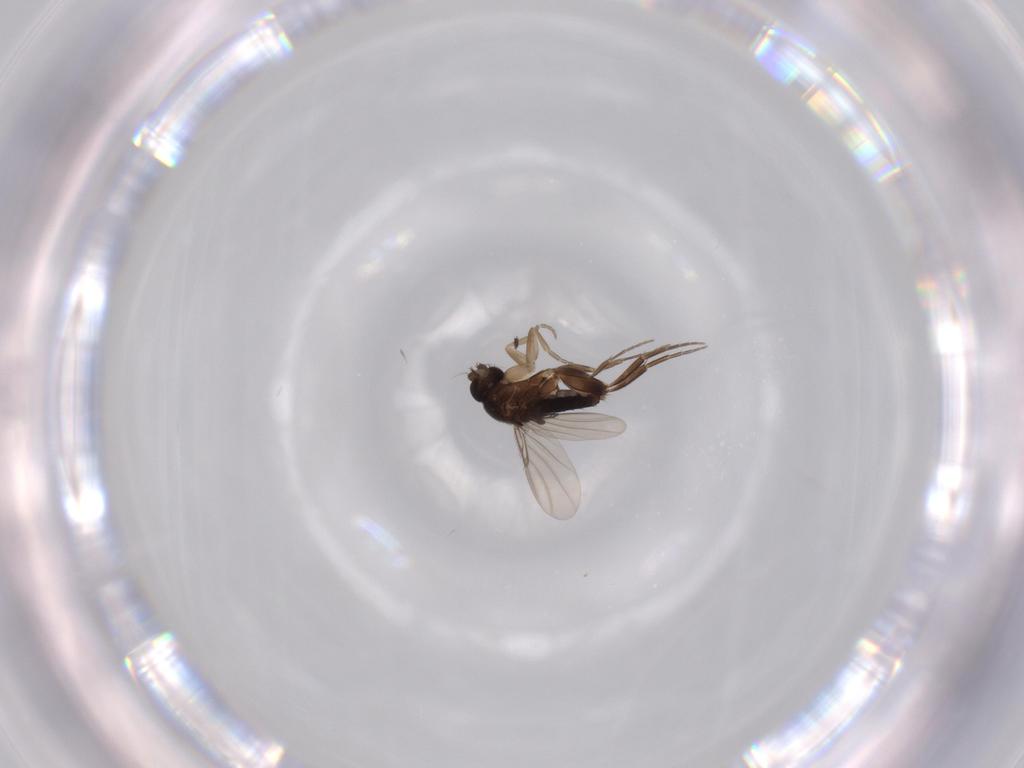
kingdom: Animalia
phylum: Arthropoda
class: Insecta
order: Diptera
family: Phoridae
